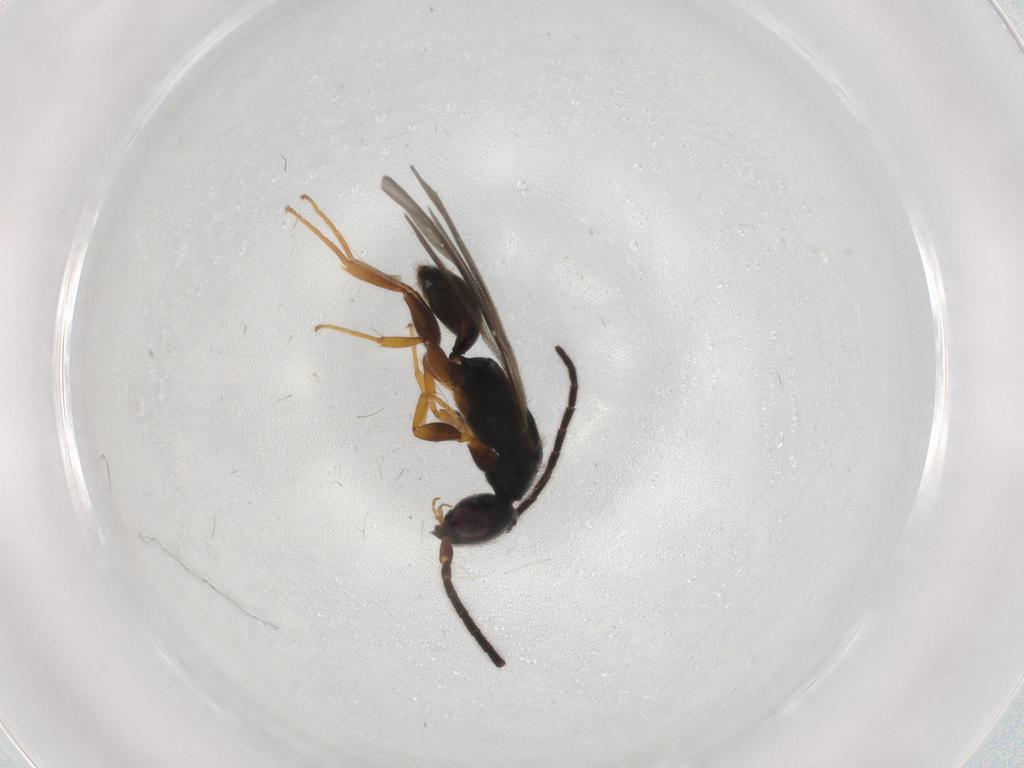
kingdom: Animalia
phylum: Arthropoda
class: Insecta
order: Hymenoptera
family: Bethylidae
